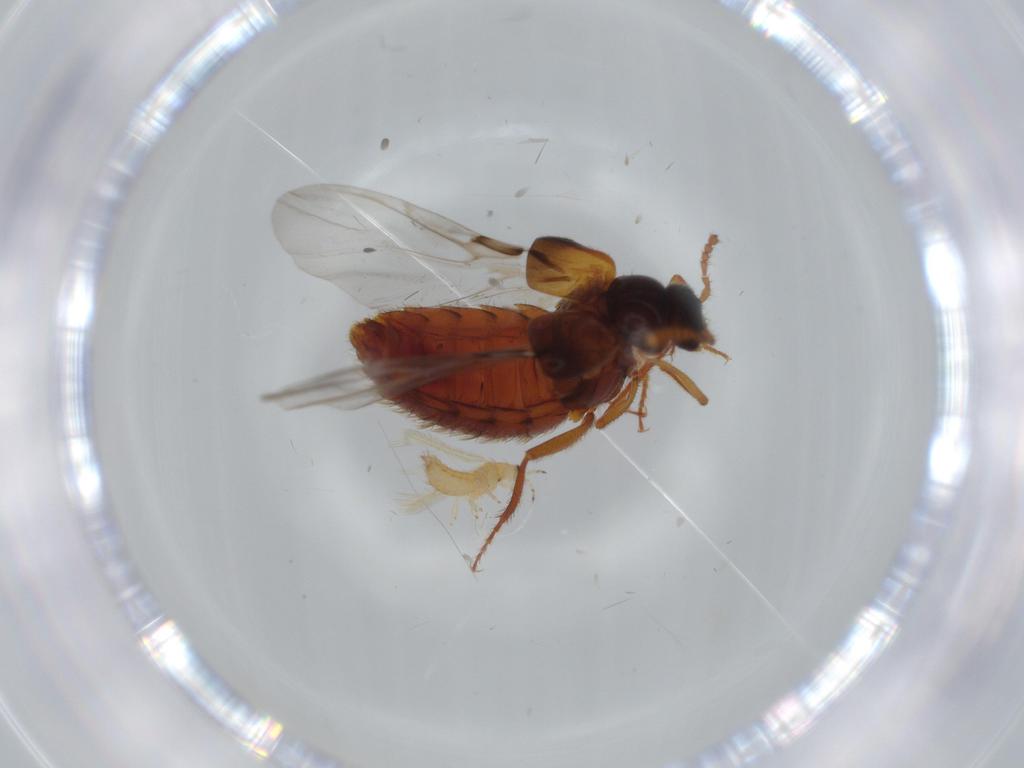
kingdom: Animalia
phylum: Arthropoda
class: Insecta
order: Coleoptera
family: Staphylinidae
